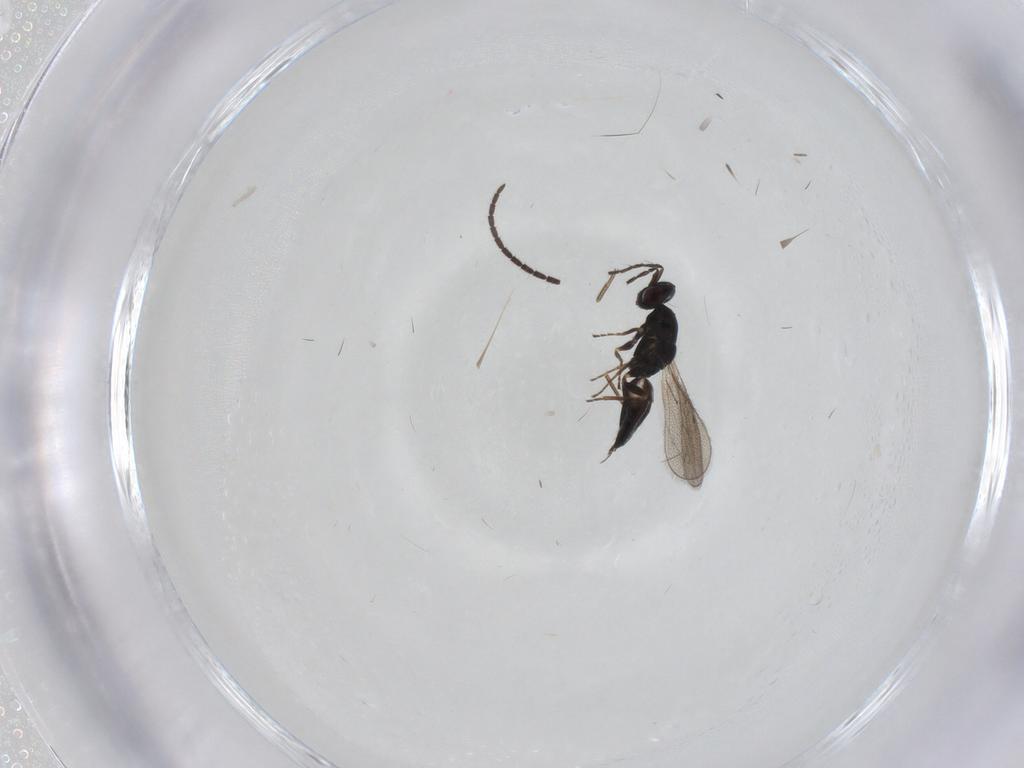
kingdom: Animalia
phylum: Arthropoda
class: Insecta
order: Hymenoptera
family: Eulophidae
